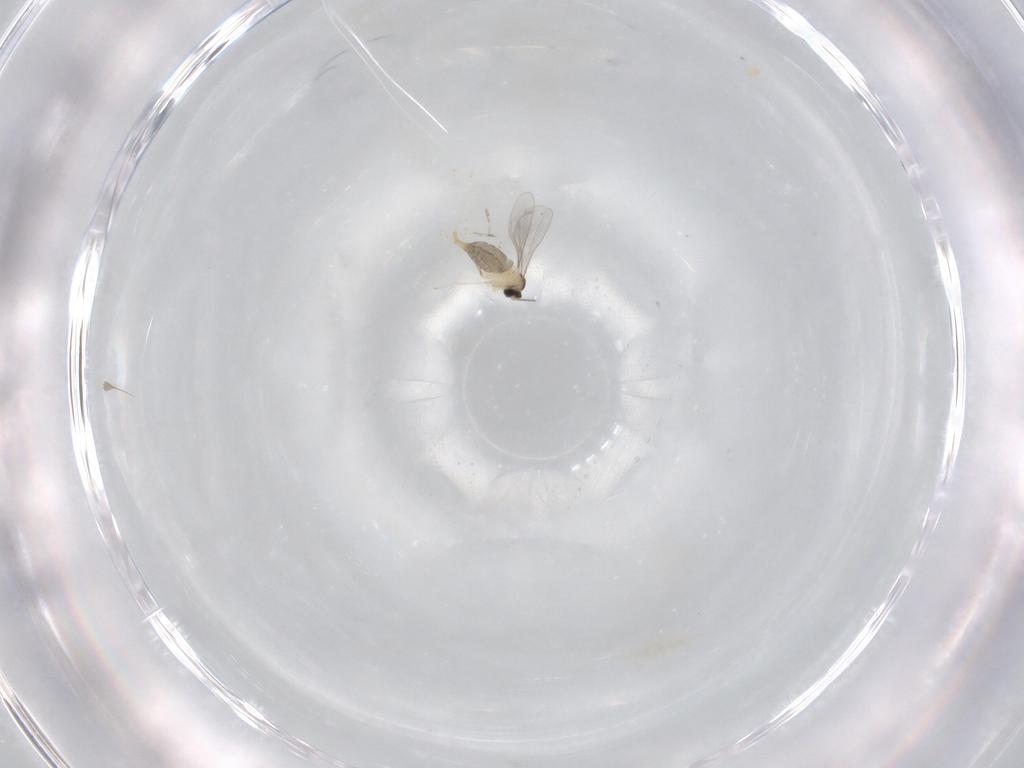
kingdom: Animalia
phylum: Arthropoda
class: Insecta
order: Diptera
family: Cecidomyiidae
